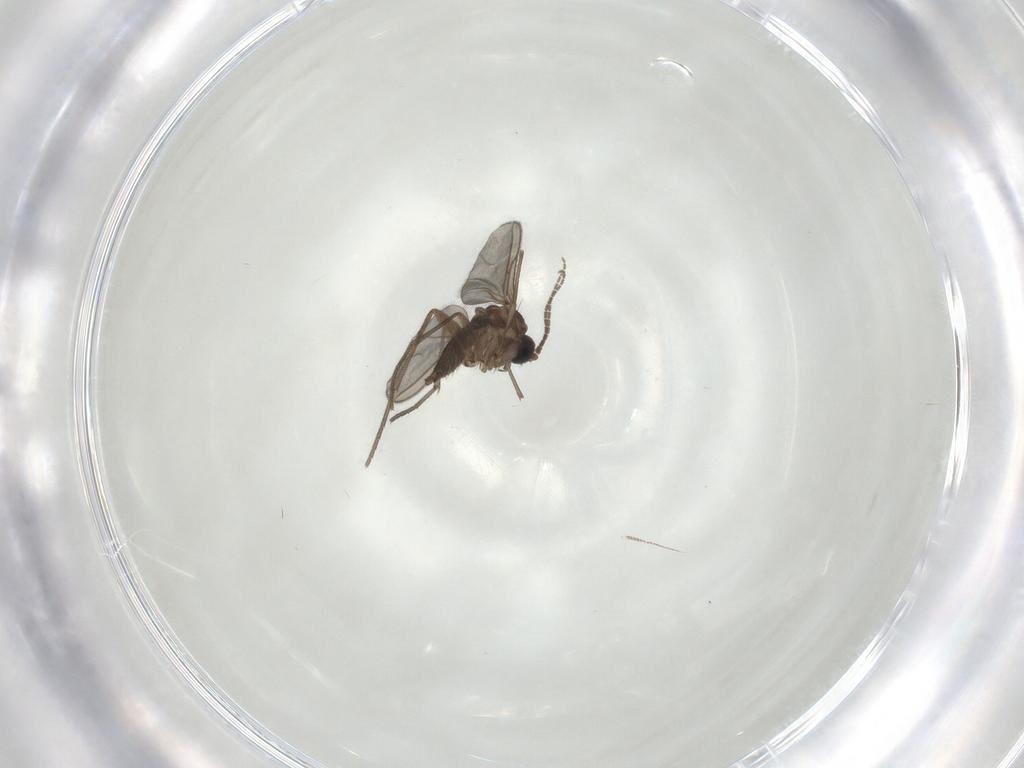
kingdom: Animalia
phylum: Arthropoda
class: Insecta
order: Diptera
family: Sciaridae
